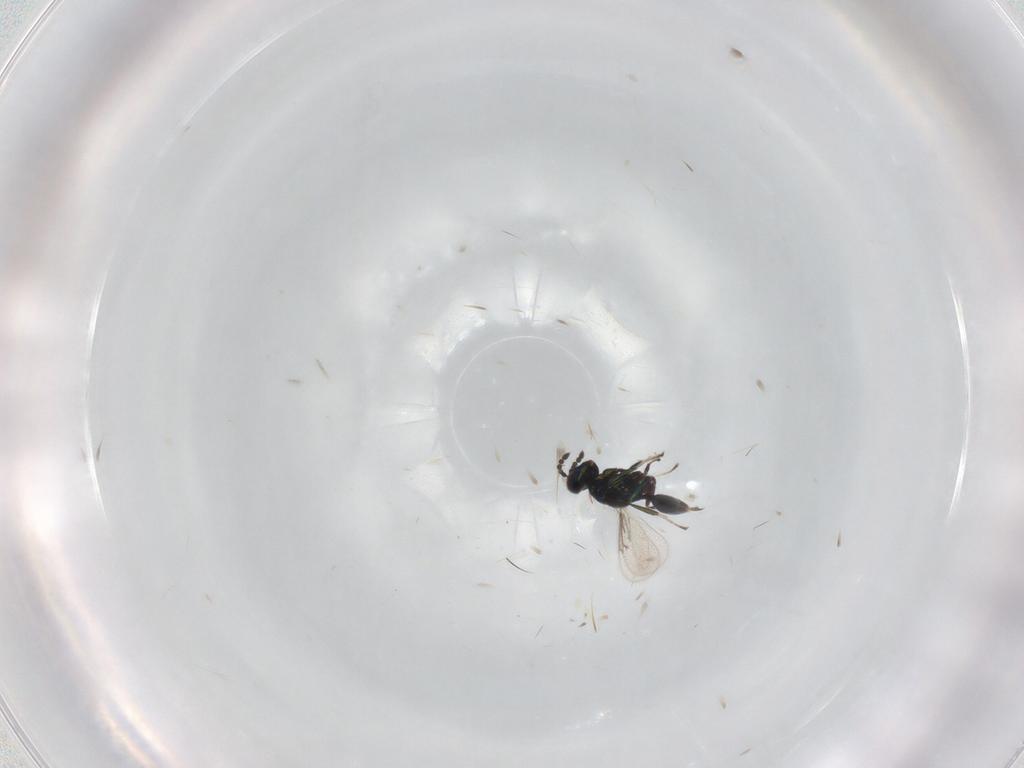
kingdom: Animalia
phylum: Arthropoda
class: Insecta
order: Hymenoptera
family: Eulophidae
